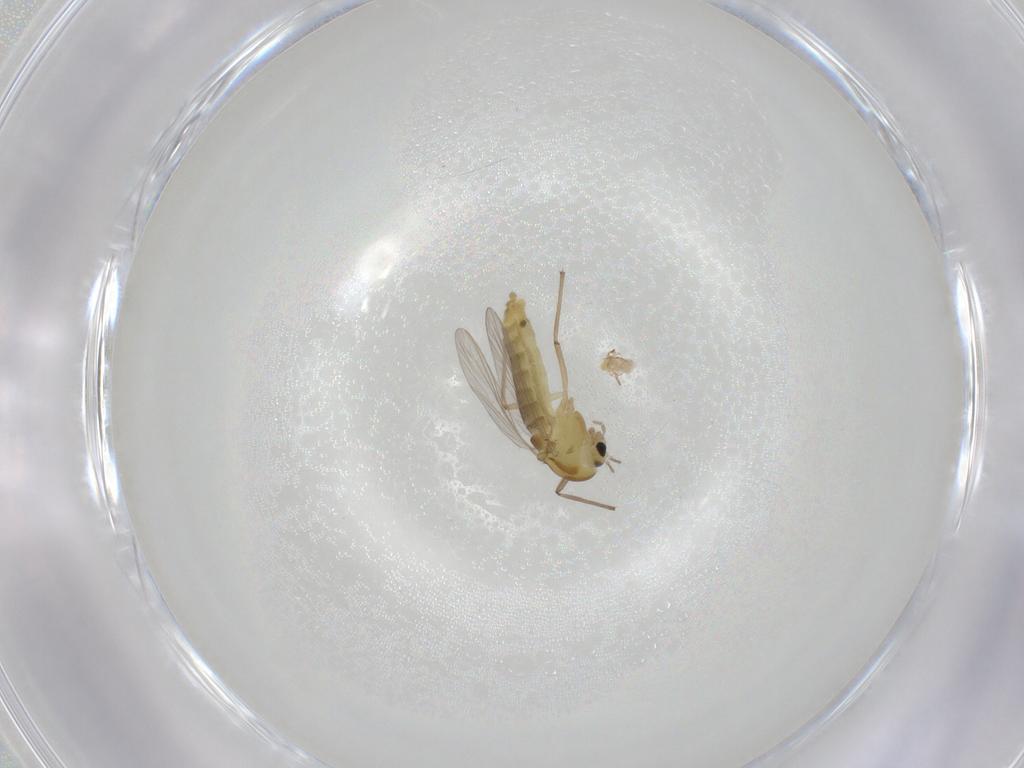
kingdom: Animalia
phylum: Arthropoda
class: Insecta
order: Diptera
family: Chironomidae
